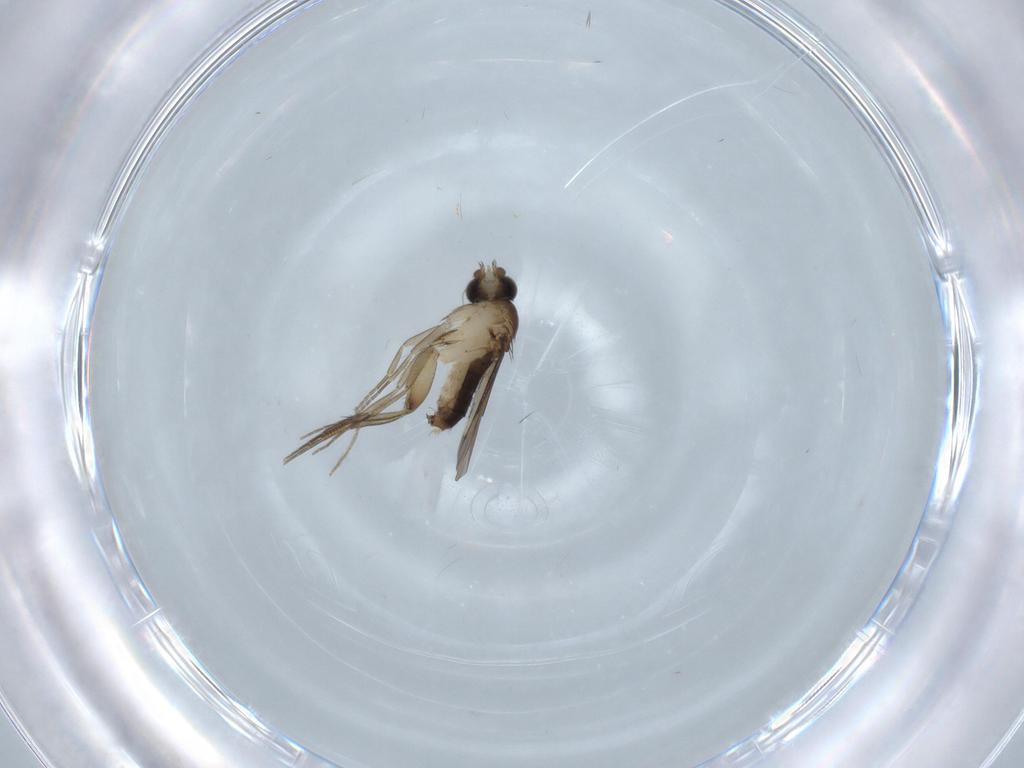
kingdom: Animalia
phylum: Arthropoda
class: Insecta
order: Diptera
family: Phoridae
